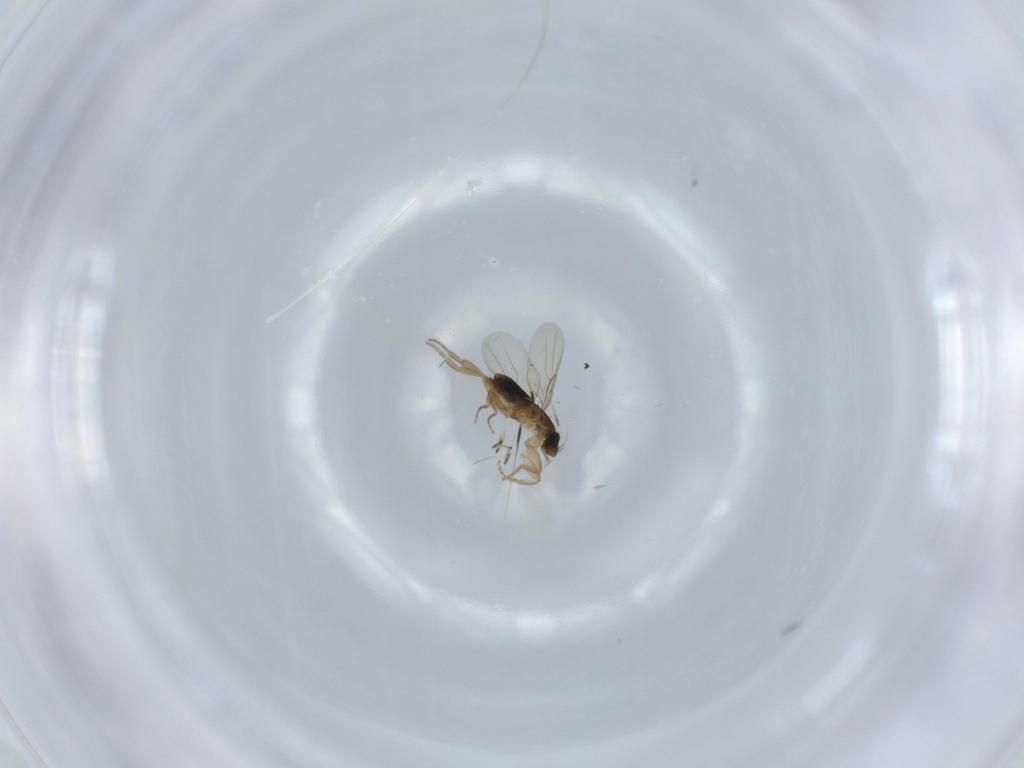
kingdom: Animalia
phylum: Arthropoda
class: Insecta
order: Diptera
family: Phoridae
